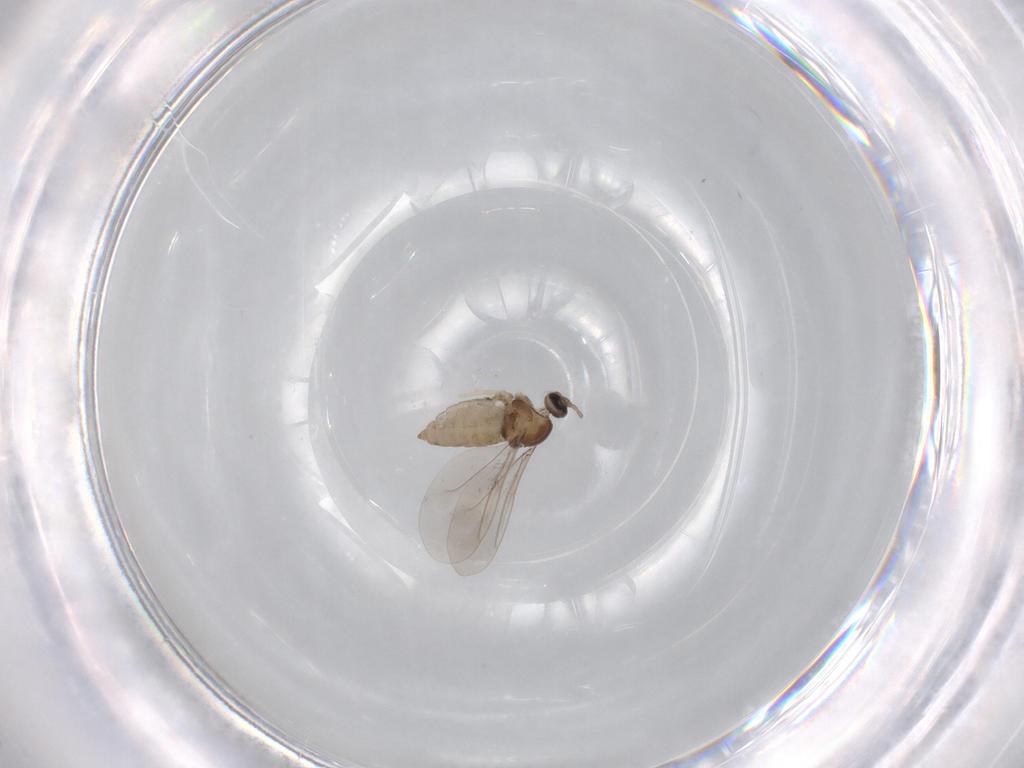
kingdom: Animalia
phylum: Arthropoda
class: Insecta
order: Diptera
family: Cecidomyiidae
